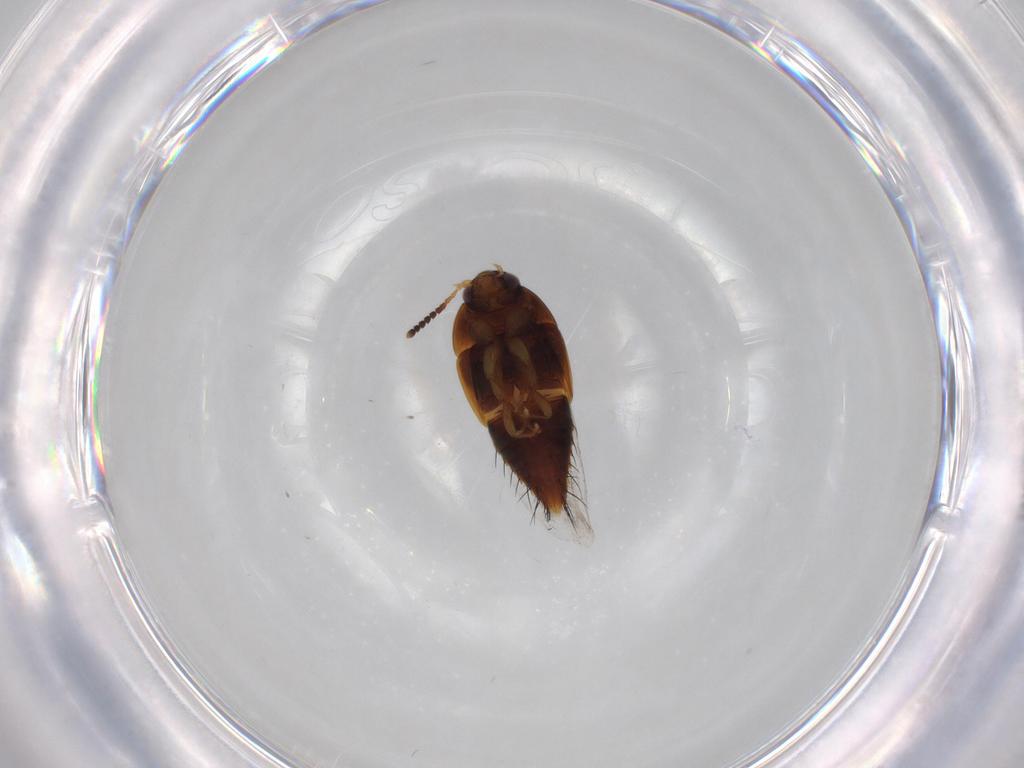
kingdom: Animalia
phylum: Arthropoda
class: Insecta
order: Coleoptera
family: Staphylinidae
